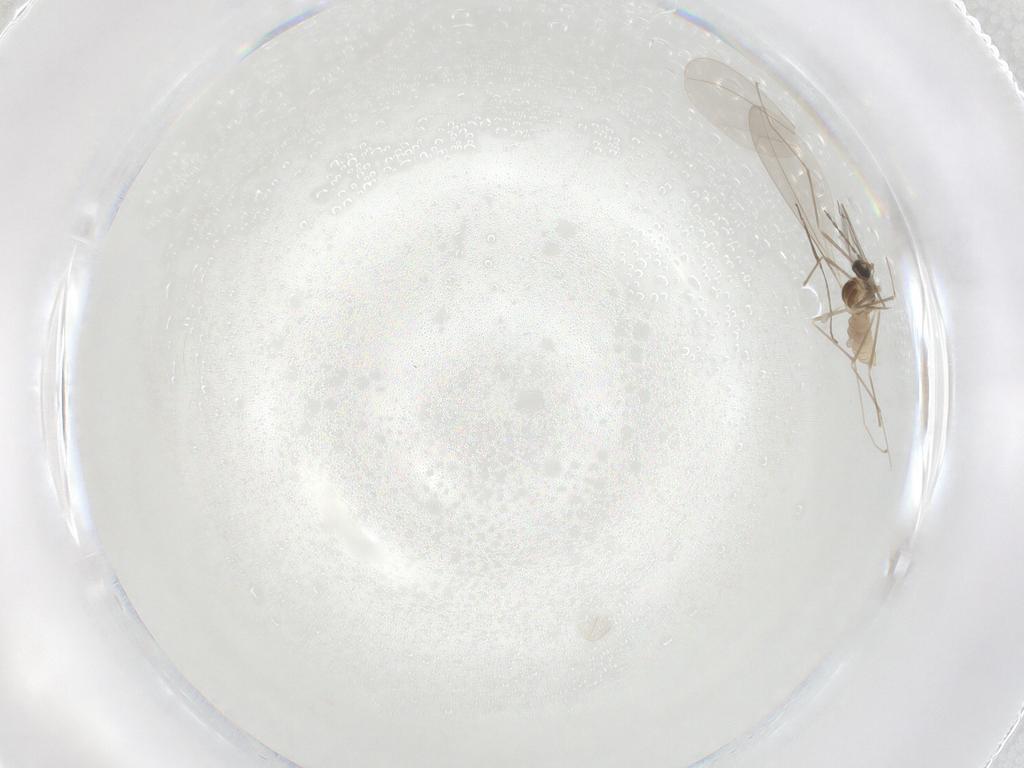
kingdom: Animalia
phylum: Arthropoda
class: Insecta
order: Diptera
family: Cecidomyiidae
